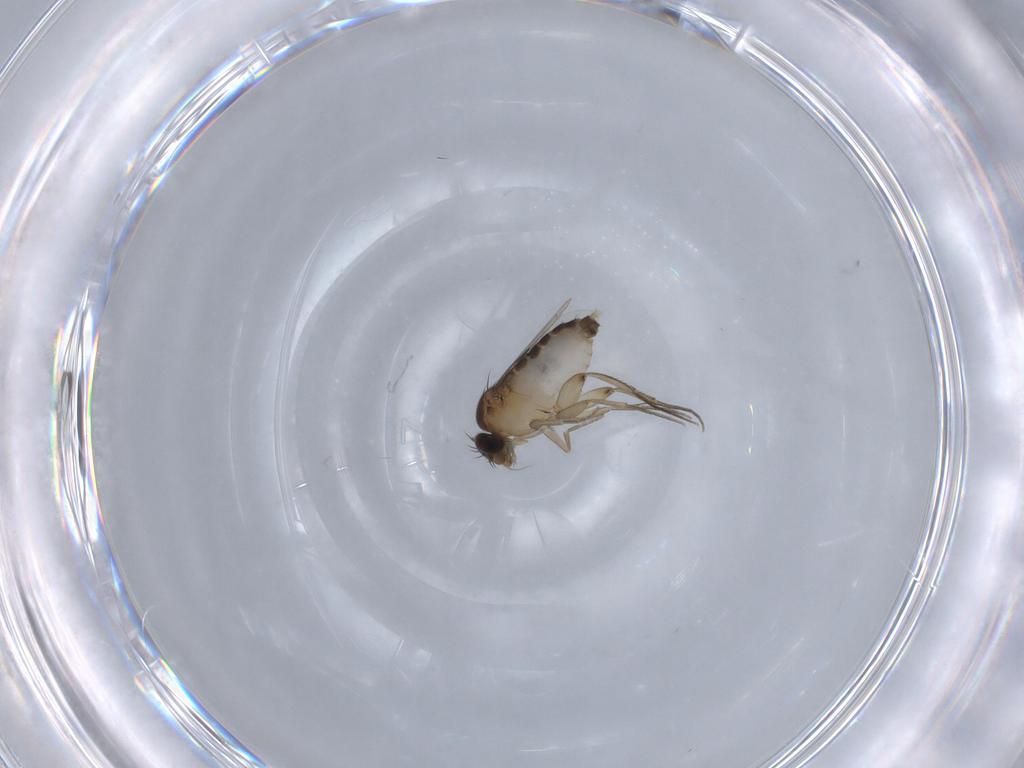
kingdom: Animalia
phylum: Arthropoda
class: Insecta
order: Diptera
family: Phoridae
